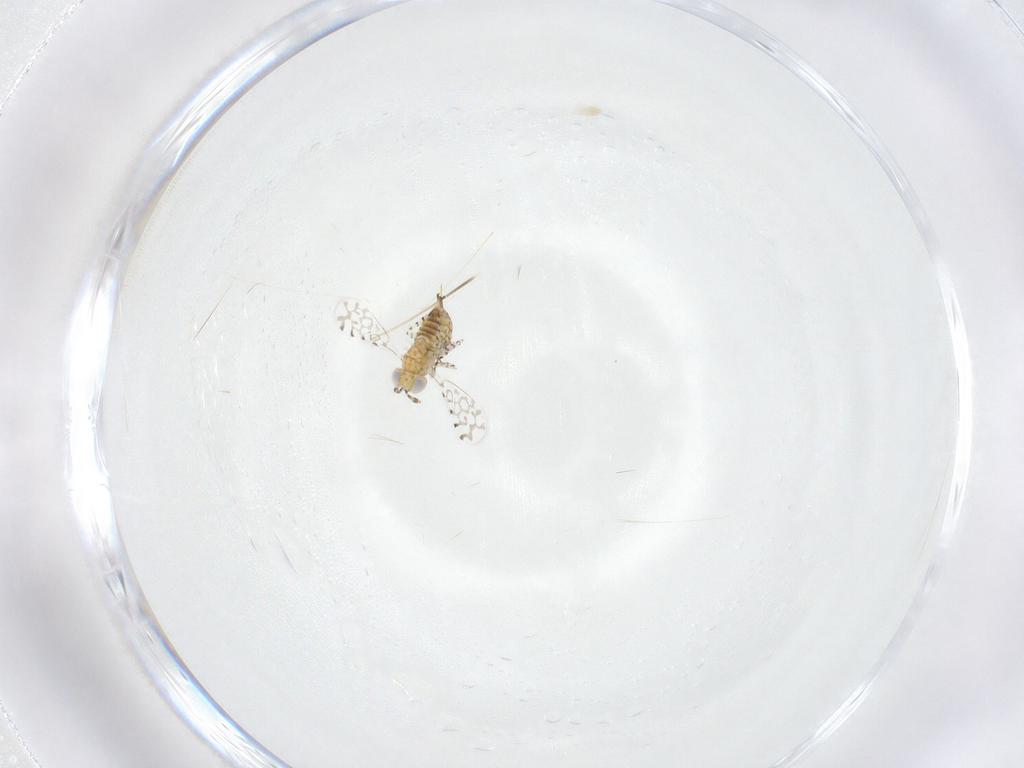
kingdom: Animalia
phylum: Arthropoda
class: Insecta
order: Hymenoptera
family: Aphelinidae
